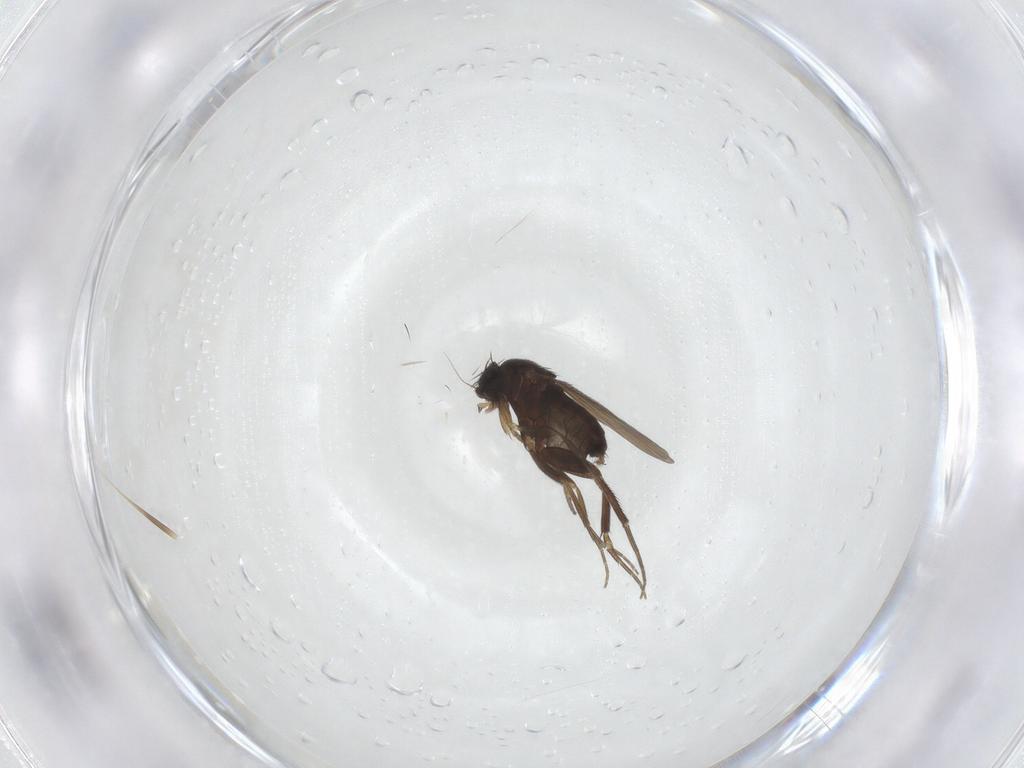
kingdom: Animalia
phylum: Arthropoda
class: Insecta
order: Diptera
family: Phoridae
